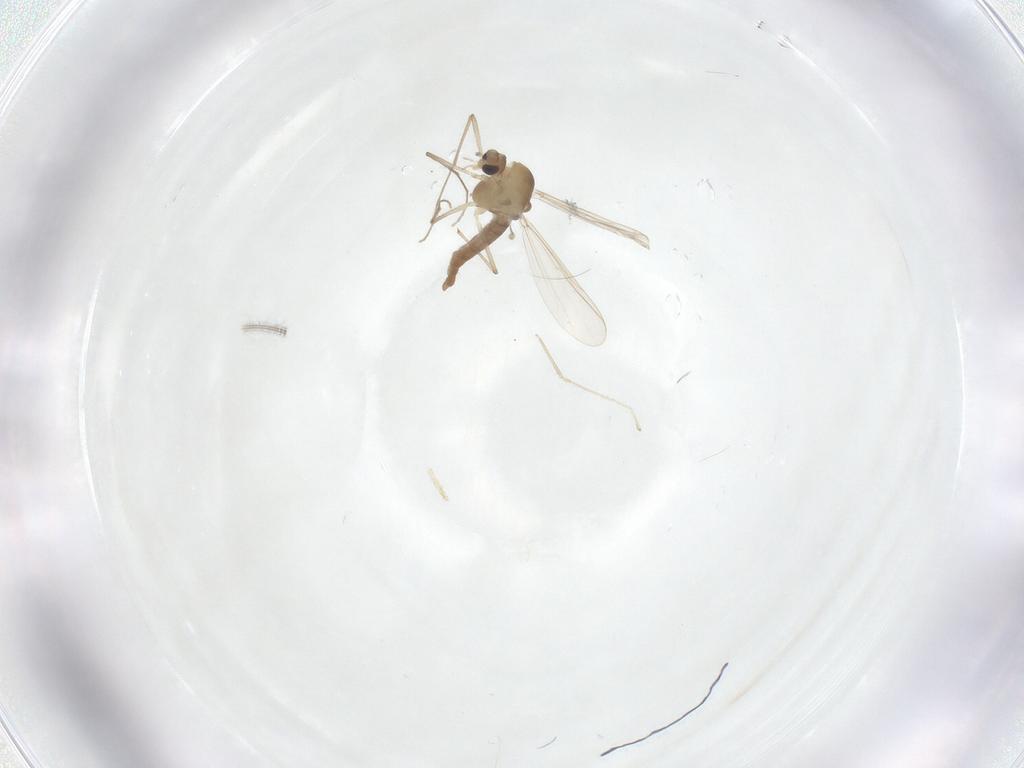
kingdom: Animalia
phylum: Arthropoda
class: Insecta
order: Diptera
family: Chironomidae
